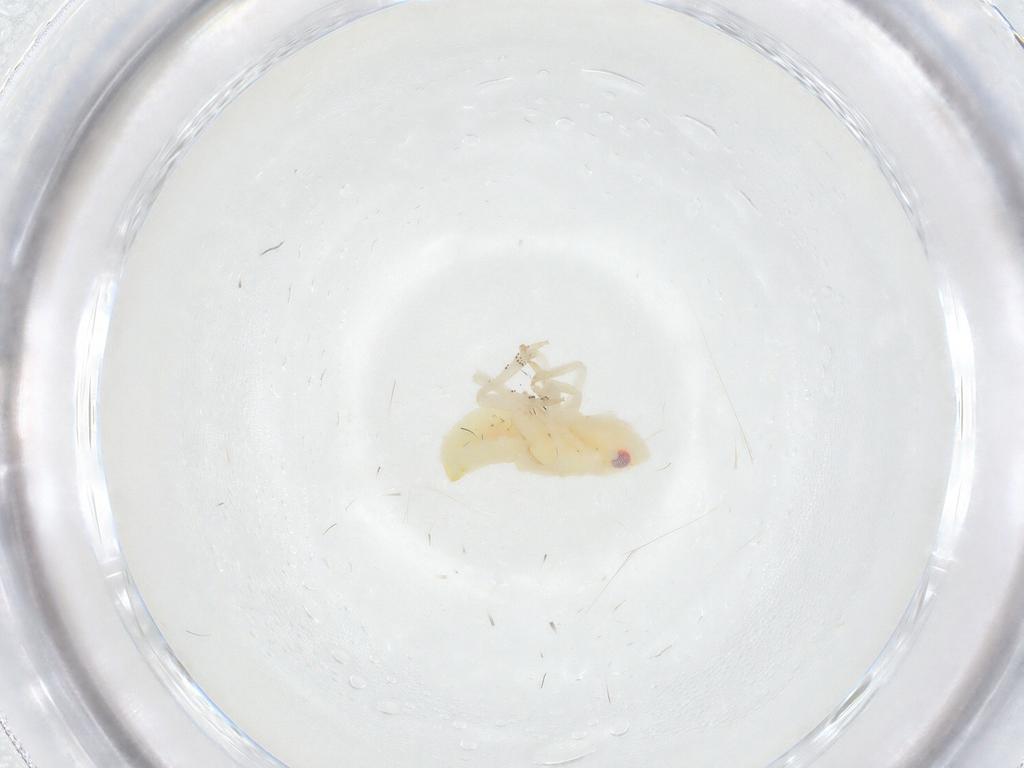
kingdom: Animalia
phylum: Arthropoda
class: Insecta
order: Hemiptera
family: Flatidae
